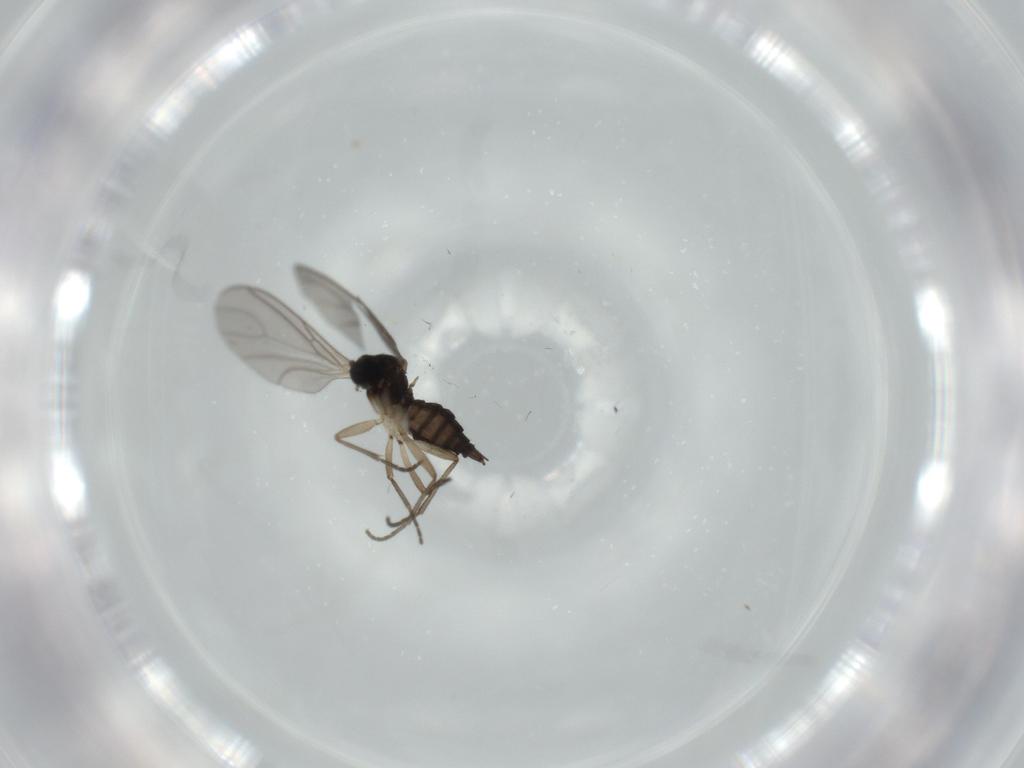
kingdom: Animalia
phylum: Arthropoda
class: Insecta
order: Diptera
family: Sciaridae
